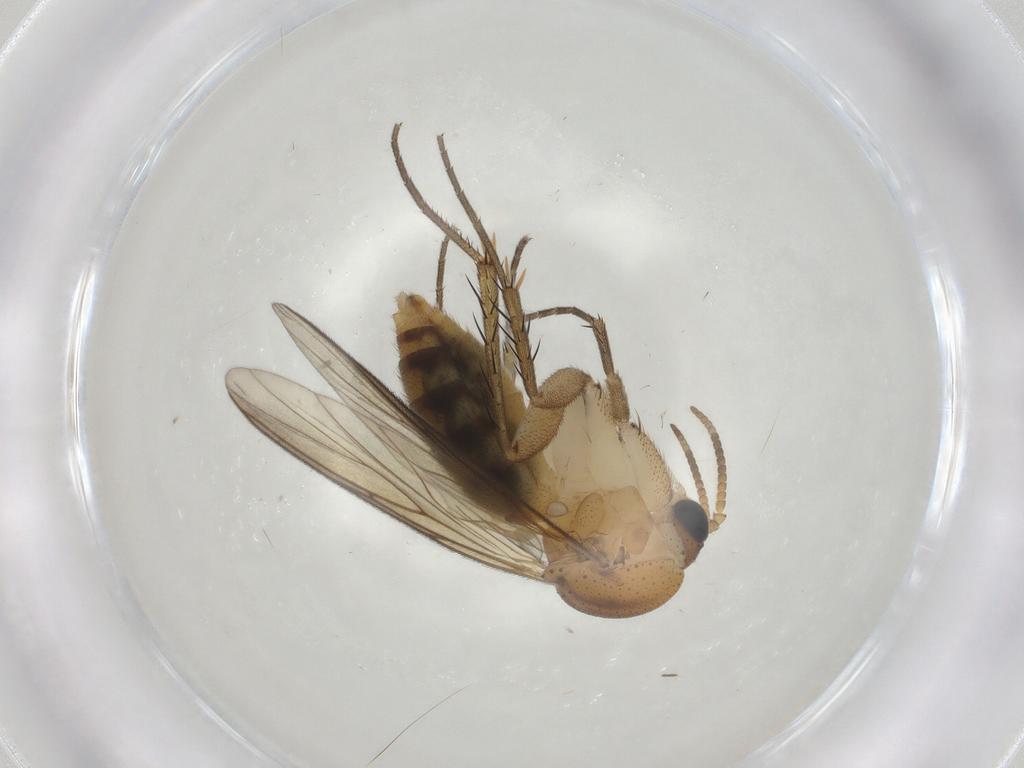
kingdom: Animalia
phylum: Arthropoda
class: Insecta
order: Diptera
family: Mycetophilidae
